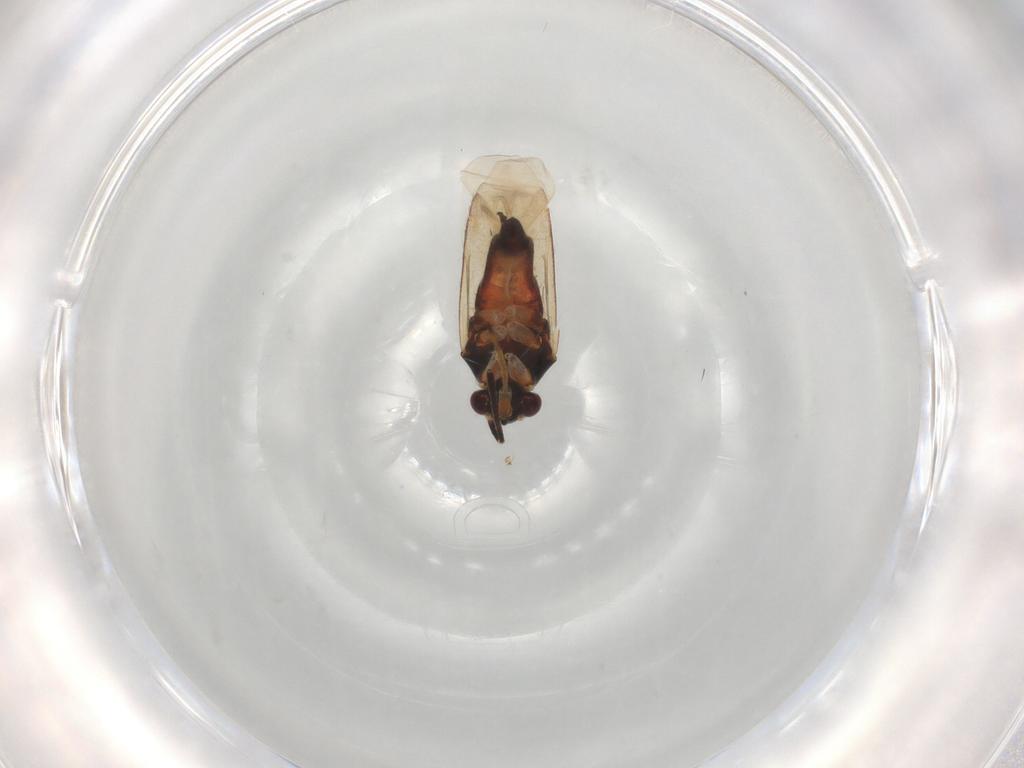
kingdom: Animalia
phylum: Arthropoda
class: Insecta
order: Hemiptera
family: Miridae
